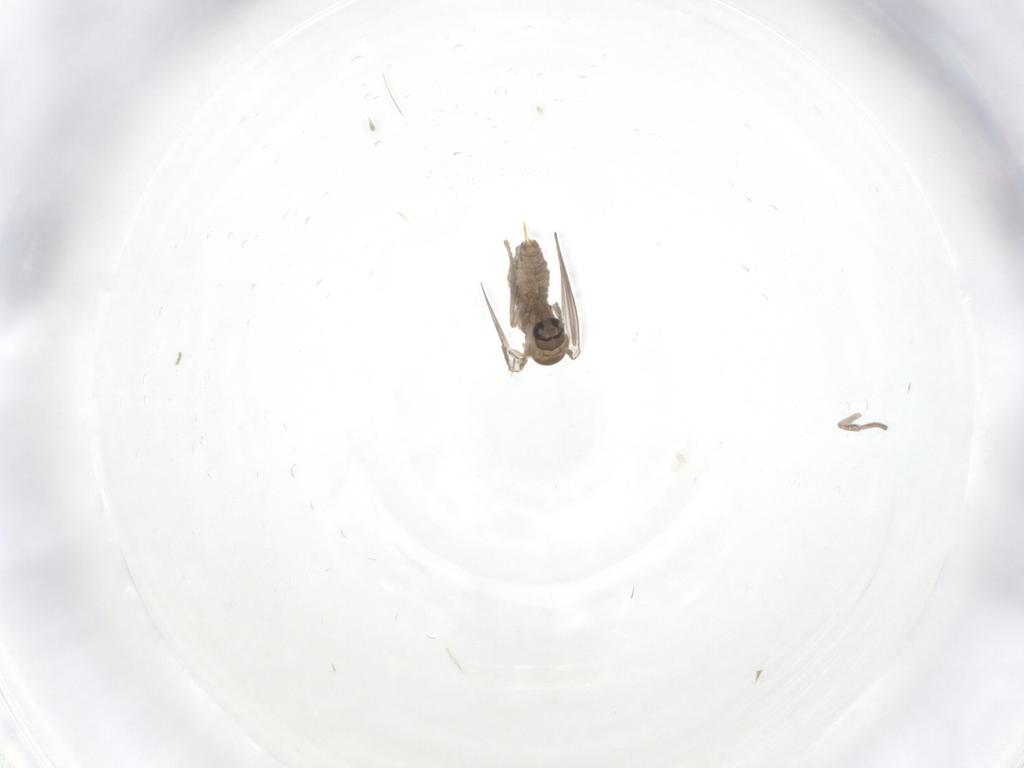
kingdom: Animalia
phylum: Arthropoda
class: Insecta
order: Diptera
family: Psychodidae
